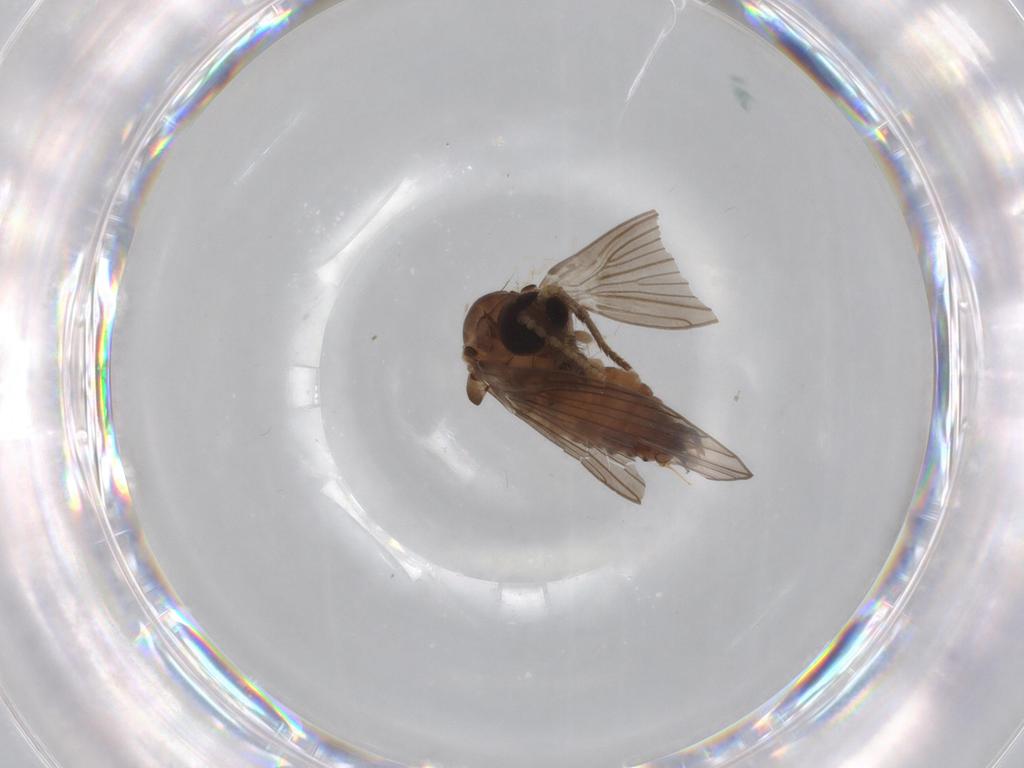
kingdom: Animalia
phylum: Arthropoda
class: Insecta
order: Diptera
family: Psychodidae
